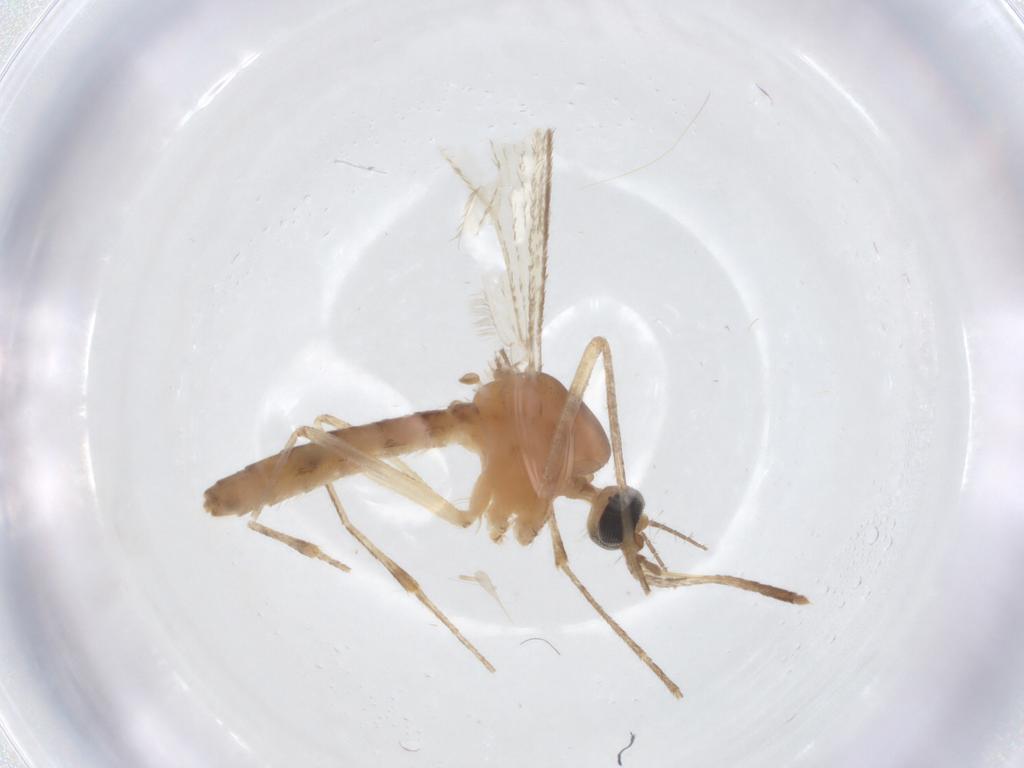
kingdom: Animalia
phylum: Arthropoda
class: Insecta
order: Diptera
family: Culicidae
